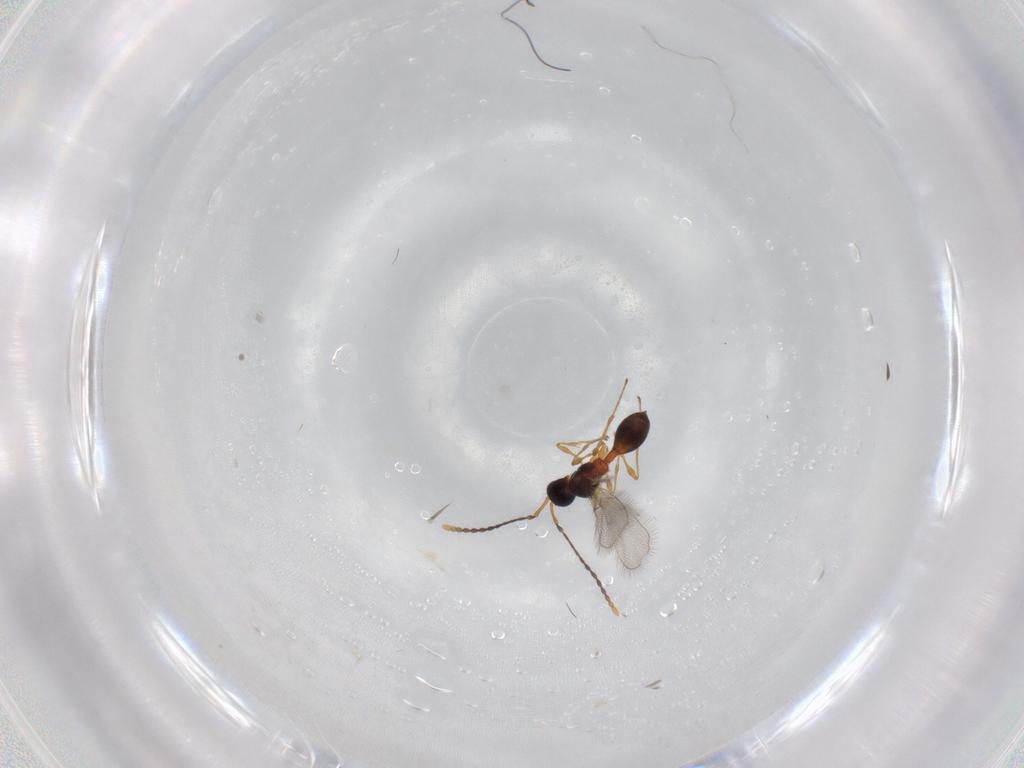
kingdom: Animalia
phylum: Arthropoda
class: Insecta
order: Hymenoptera
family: Diapriidae
